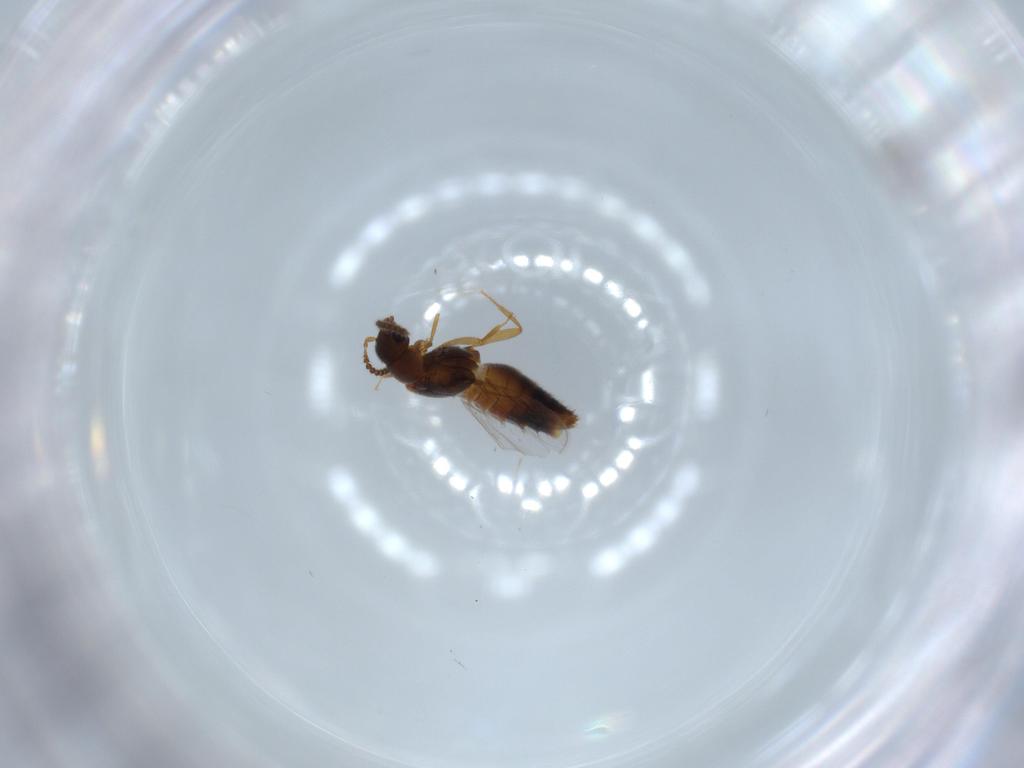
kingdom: Animalia
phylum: Arthropoda
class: Insecta
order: Coleoptera
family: Staphylinidae
